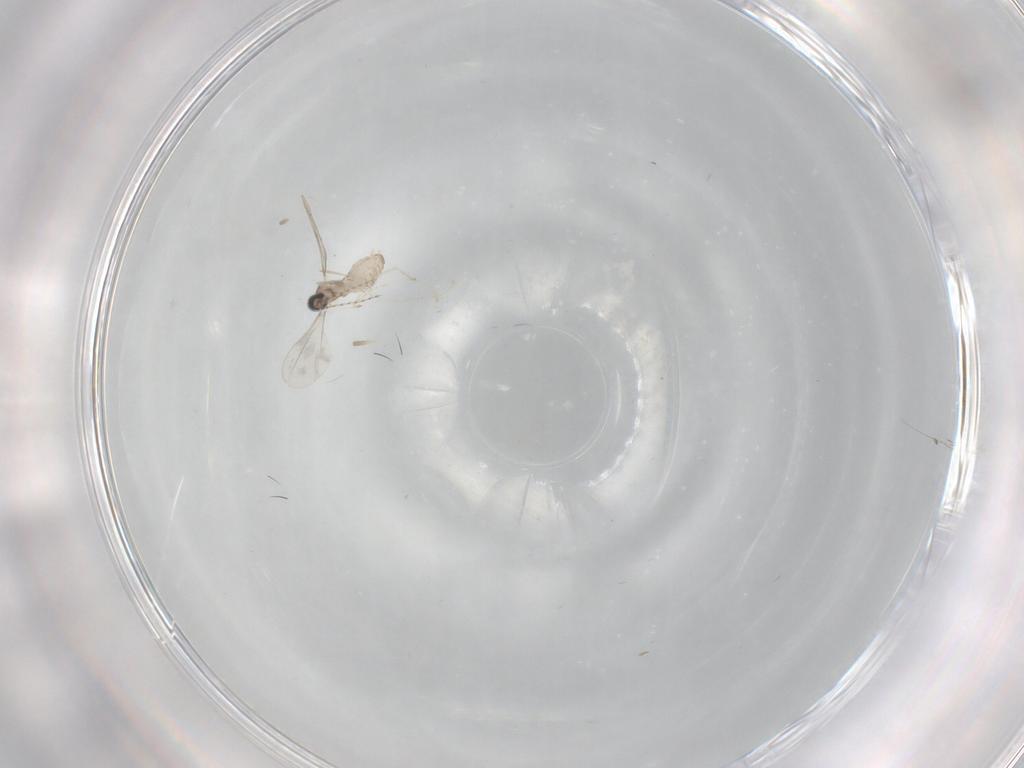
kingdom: Animalia
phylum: Arthropoda
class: Insecta
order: Diptera
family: Cecidomyiidae
